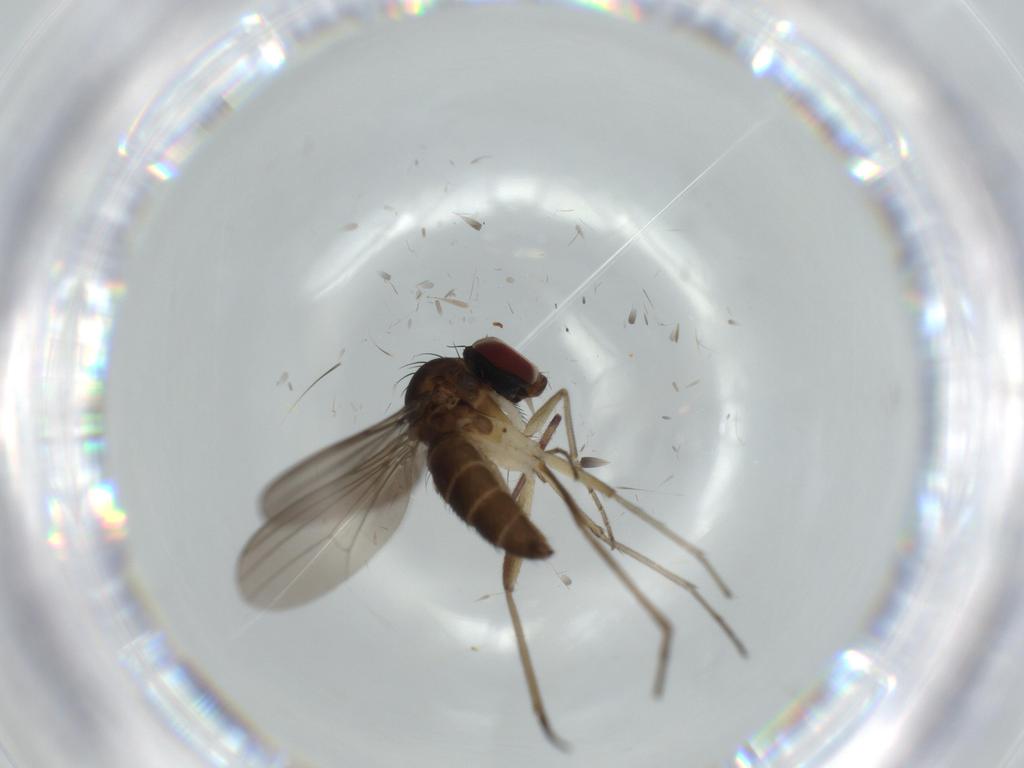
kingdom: Animalia
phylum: Arthropoda
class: Insecta
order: Diptera
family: Dolichopodidae
